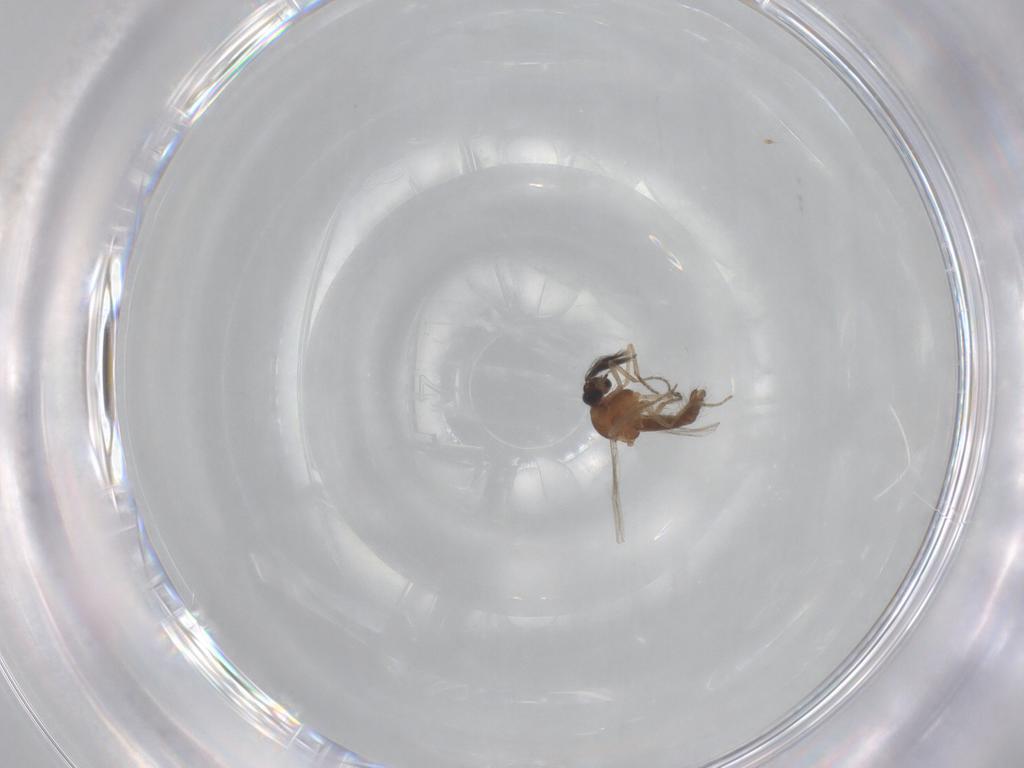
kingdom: Animalia
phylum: Arthropoda
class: Insecta
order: Diptera
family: Ceratopogonidae
